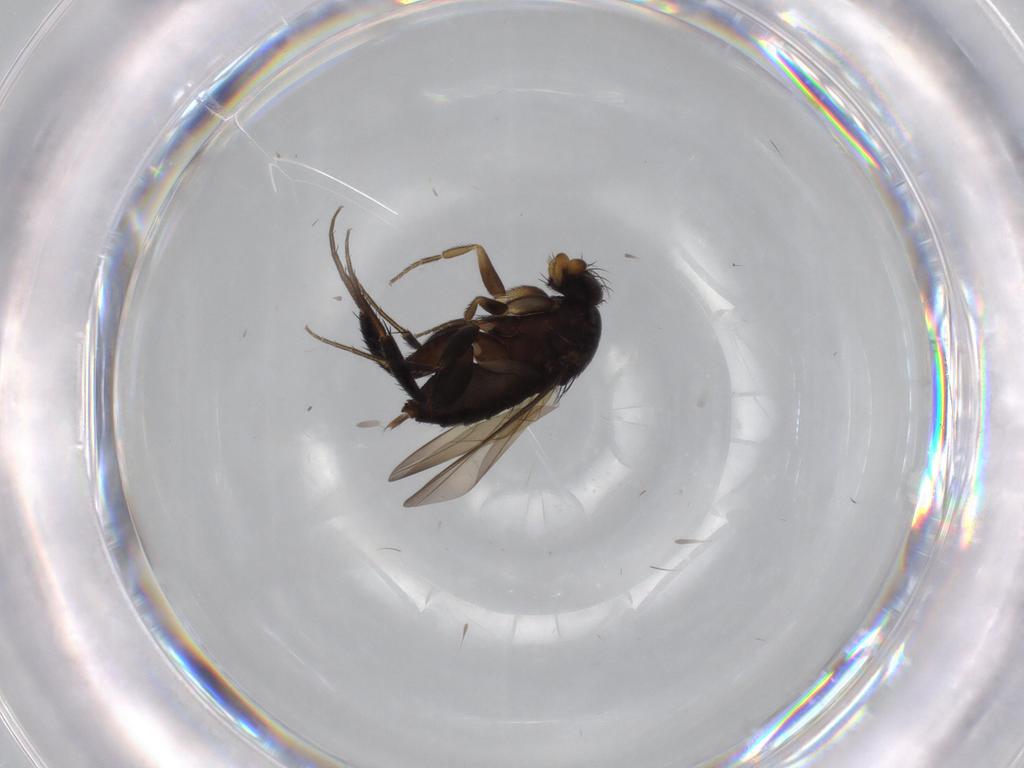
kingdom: Animalia
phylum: Arthropoda
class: Insecta
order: Diptera
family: Phoridae
